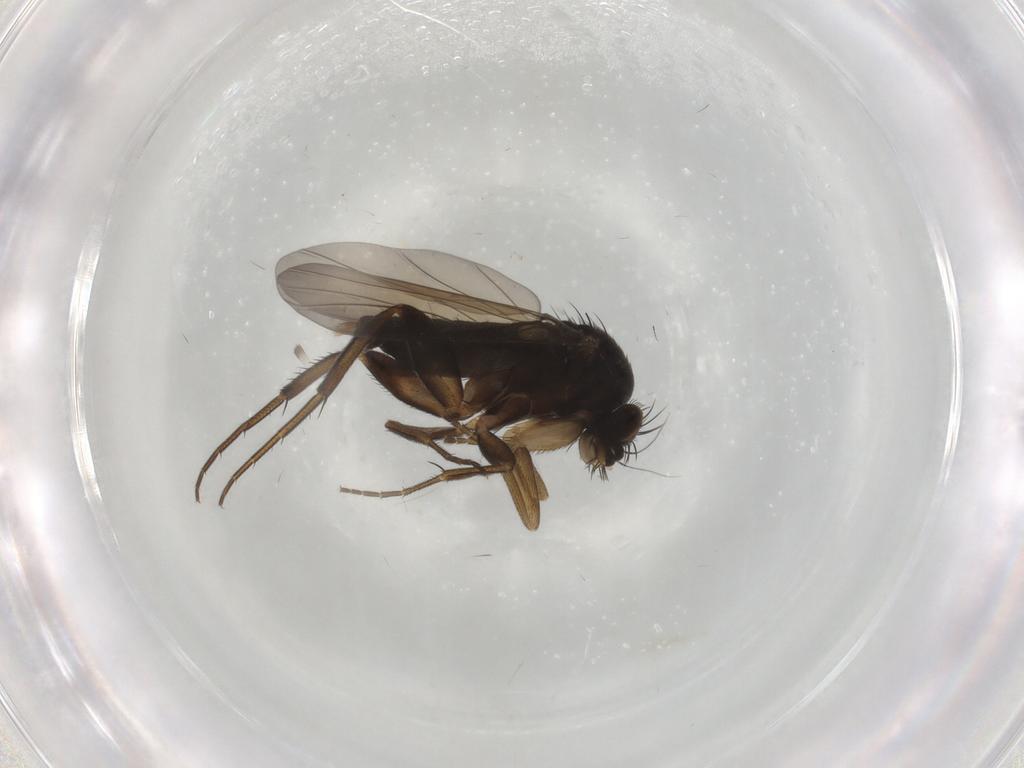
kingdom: Animalia
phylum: Arthropoda
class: Insecta
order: Diptera
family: Phoridae
